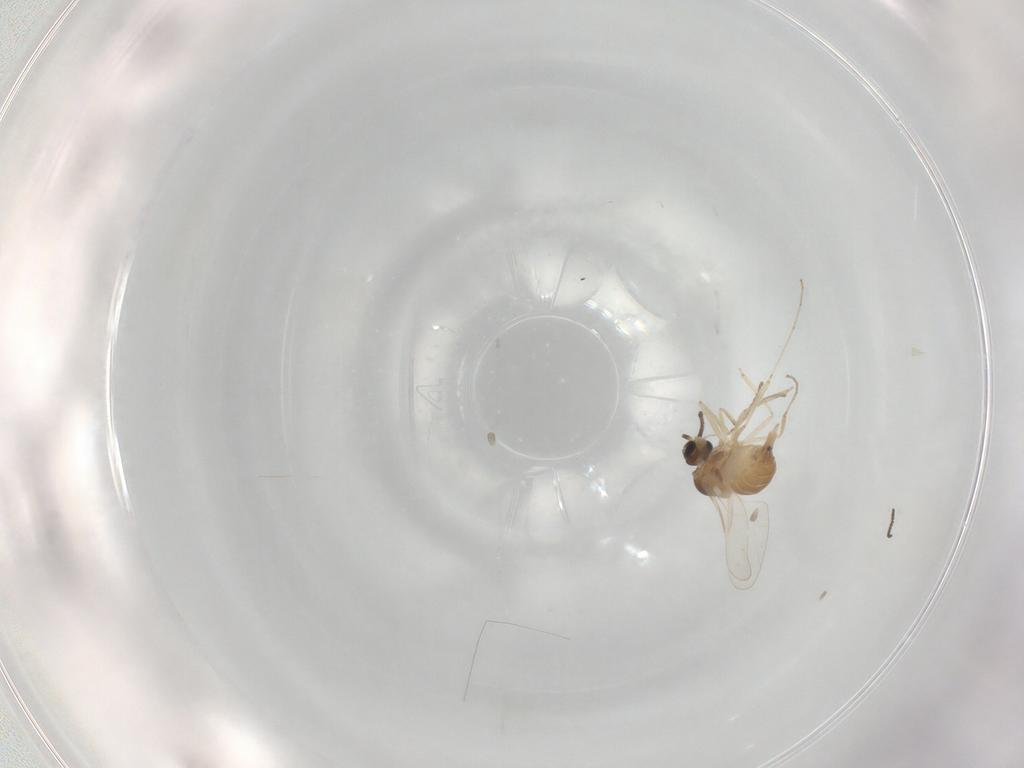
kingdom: Animalia
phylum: Arthropoda
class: Insecta
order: Diptera
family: Cecidomyiidae
